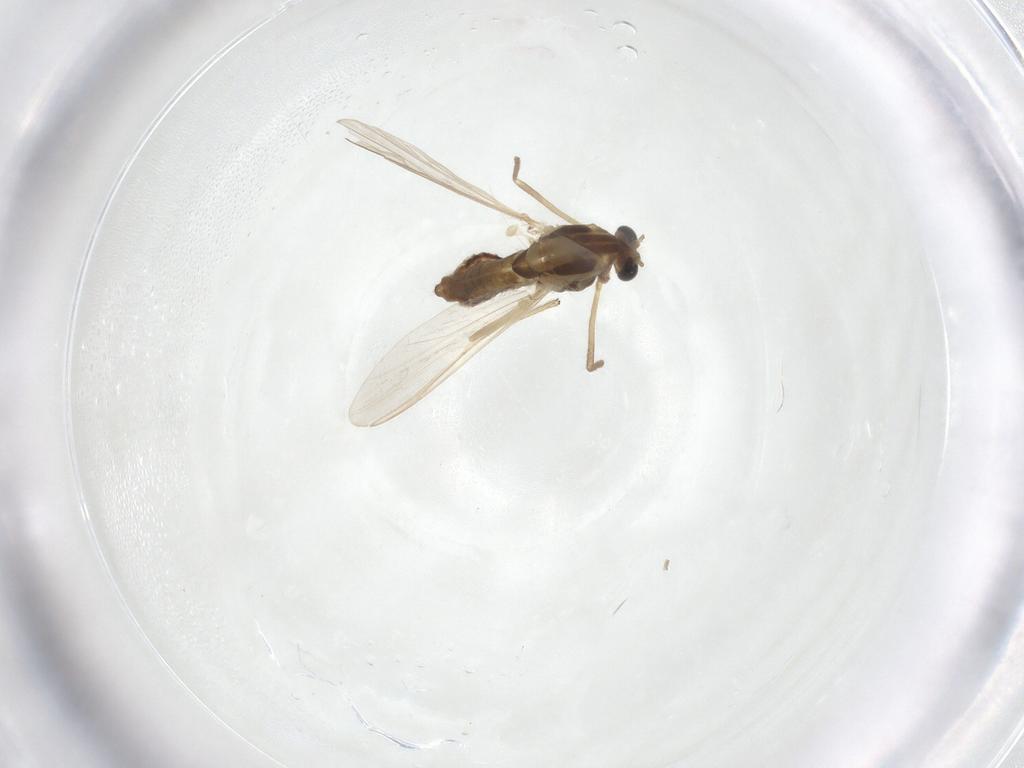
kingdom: Animalia
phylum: Arthropoda
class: Insecta
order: Diptera
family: Chironomidae
